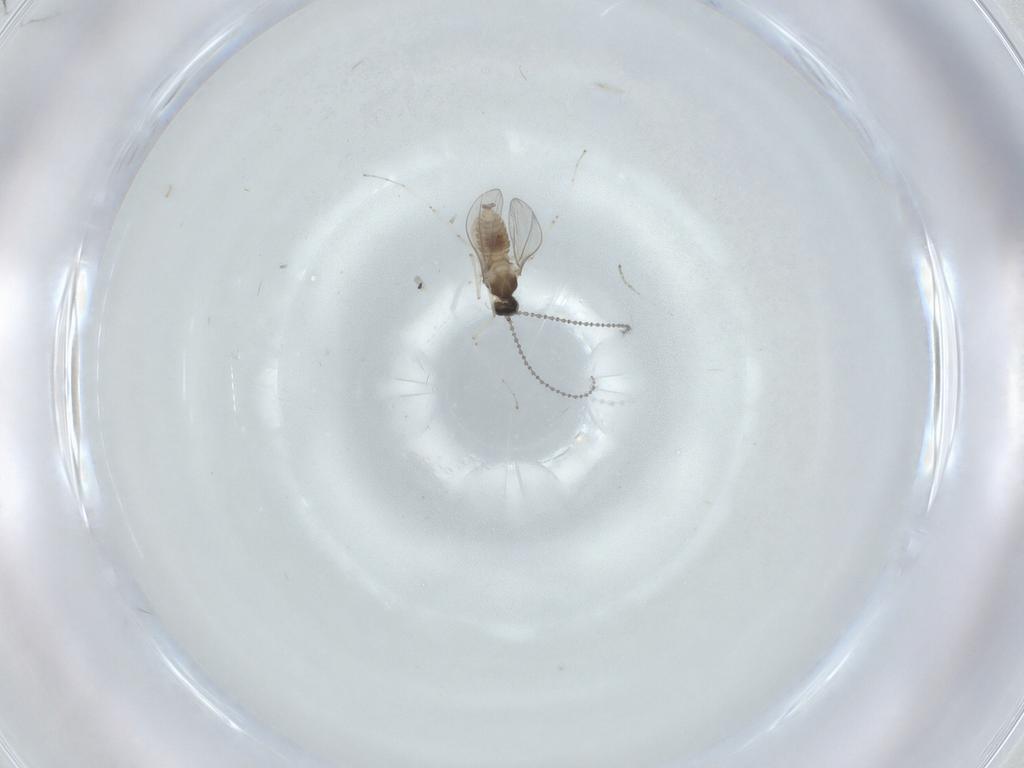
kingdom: Animalia
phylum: Arthropoda
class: Insecta
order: Diptera
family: Cecidomyiidae
